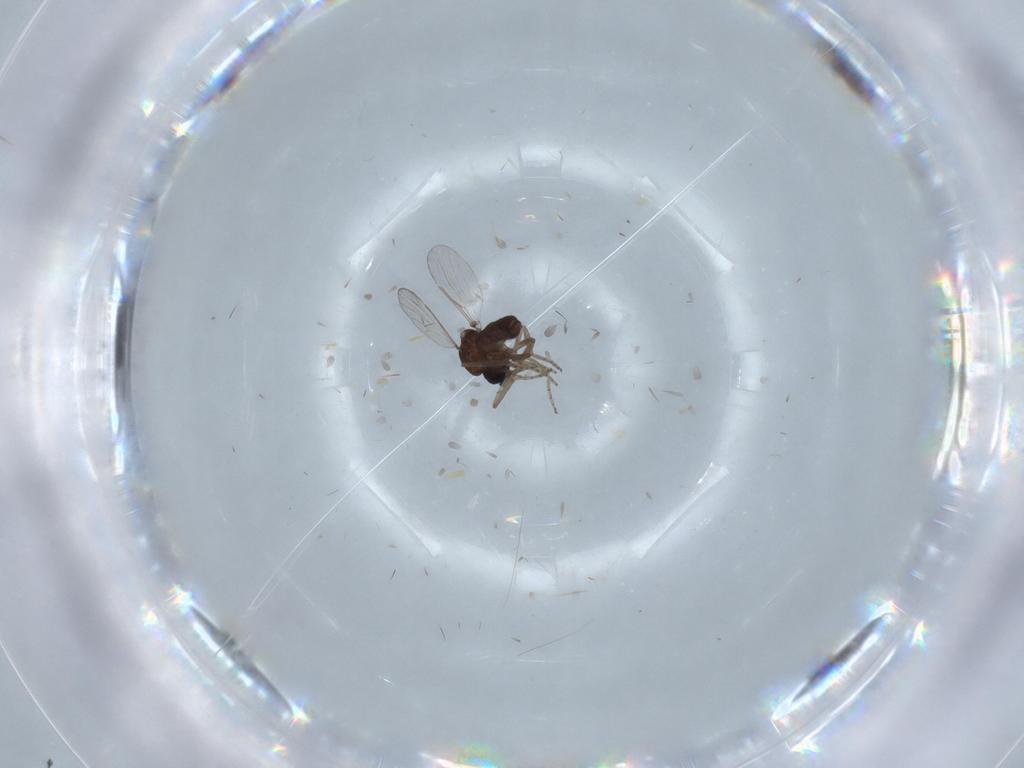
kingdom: Animalia
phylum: Arthropoda
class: Insecta
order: Diptera
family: Ceratopogonidae
